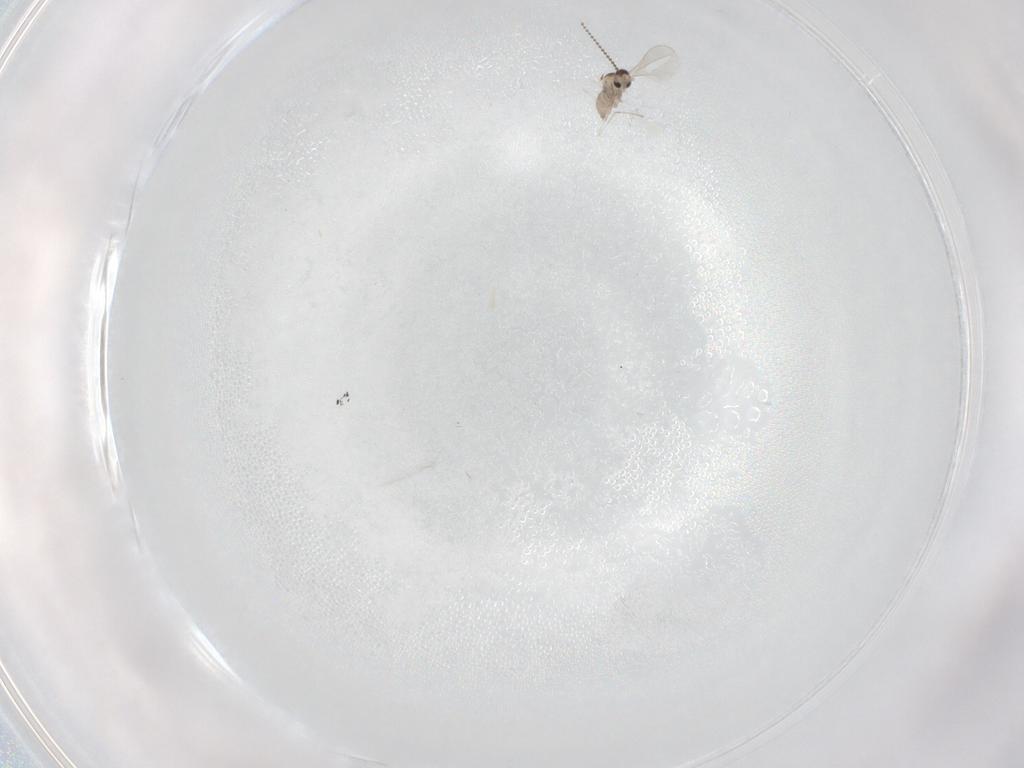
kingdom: Animalia
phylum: Arthropoda
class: Insecta
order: Diptera
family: Cecidomyiidae
